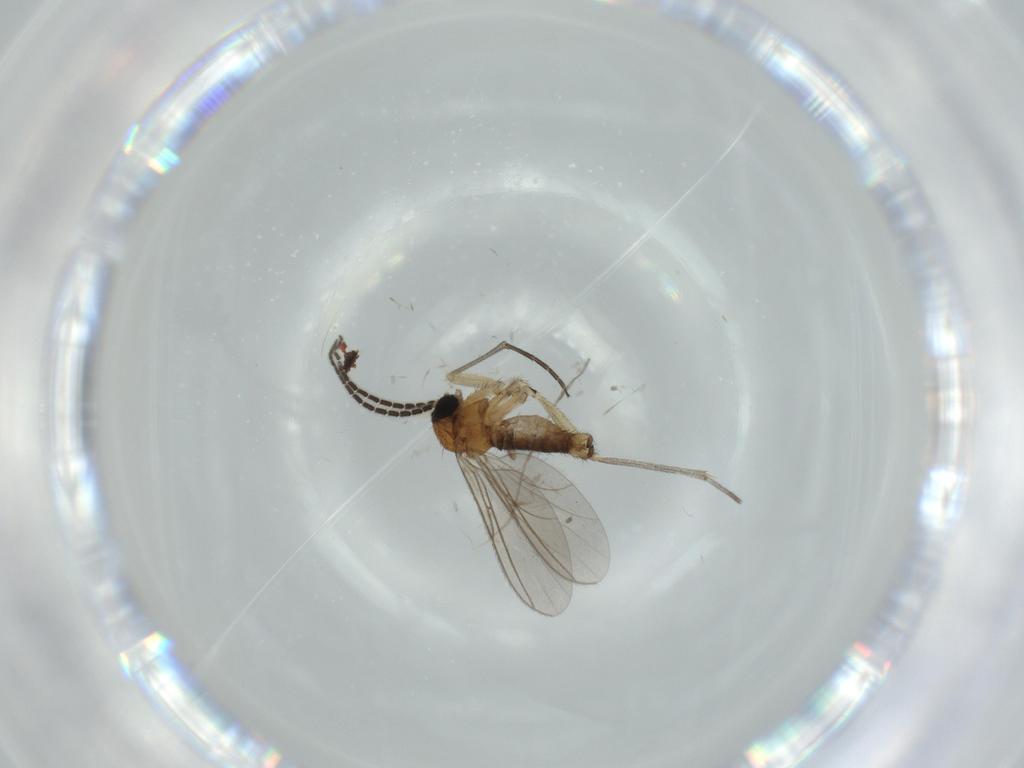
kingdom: Animalia
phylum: Arthropoda
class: Insecta
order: Diptera
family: Sciaridae
